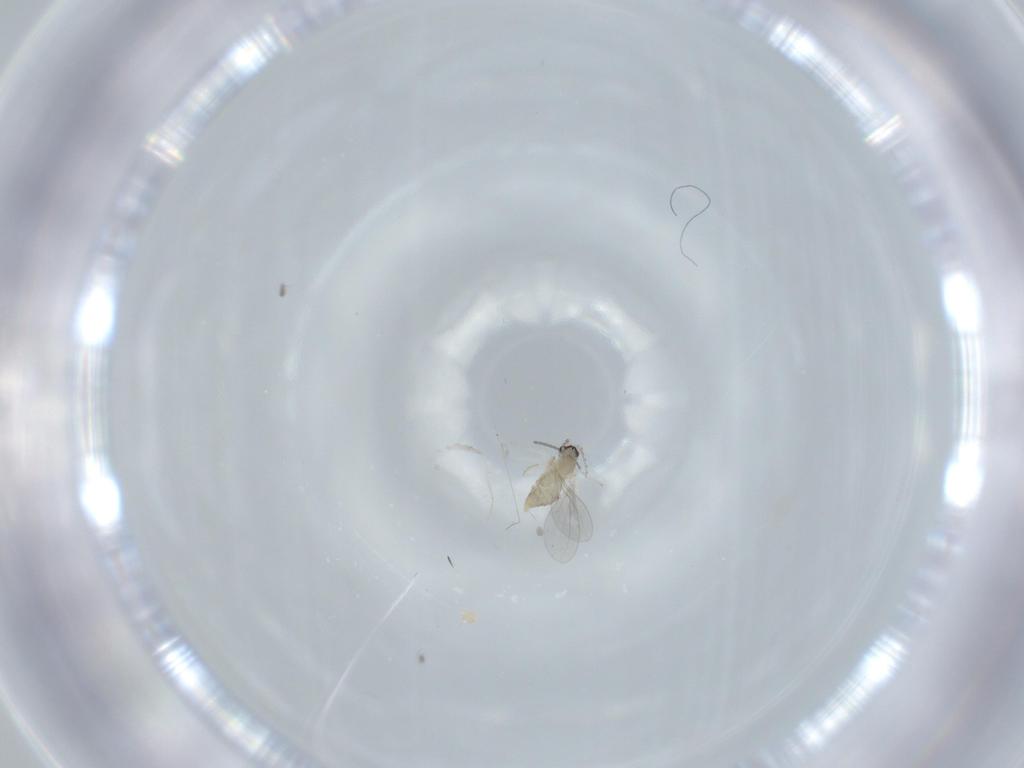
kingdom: Animalia
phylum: Arthropoda
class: Insecta
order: Diptera
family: Cecidomyiidae
